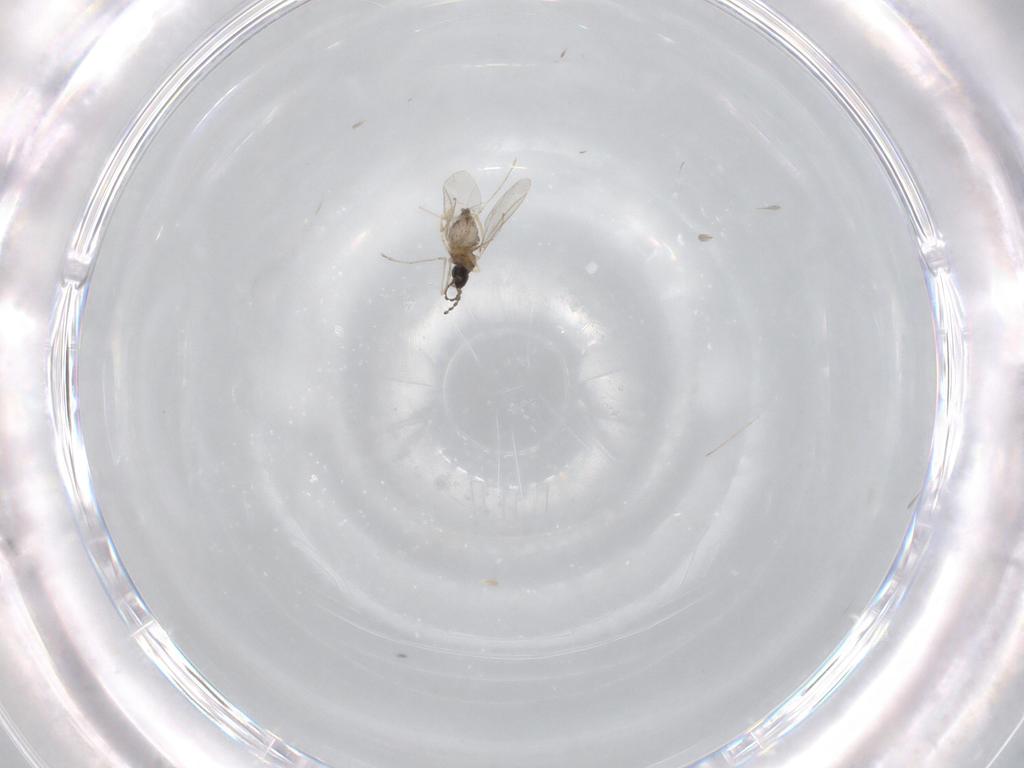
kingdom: Animalia
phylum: Arthropoda
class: Insecta
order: Diptera
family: Cecidomyiidae
